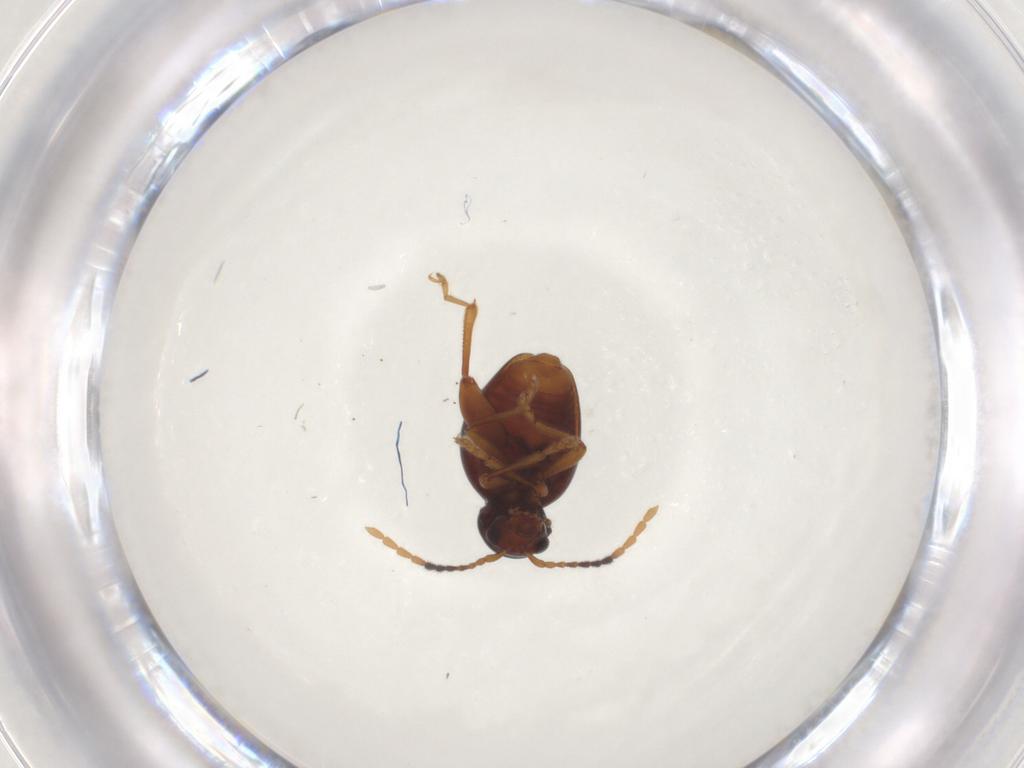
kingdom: Animalia
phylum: Arthropoda
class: Insecta
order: Coleoptera
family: Chrysomelidae
